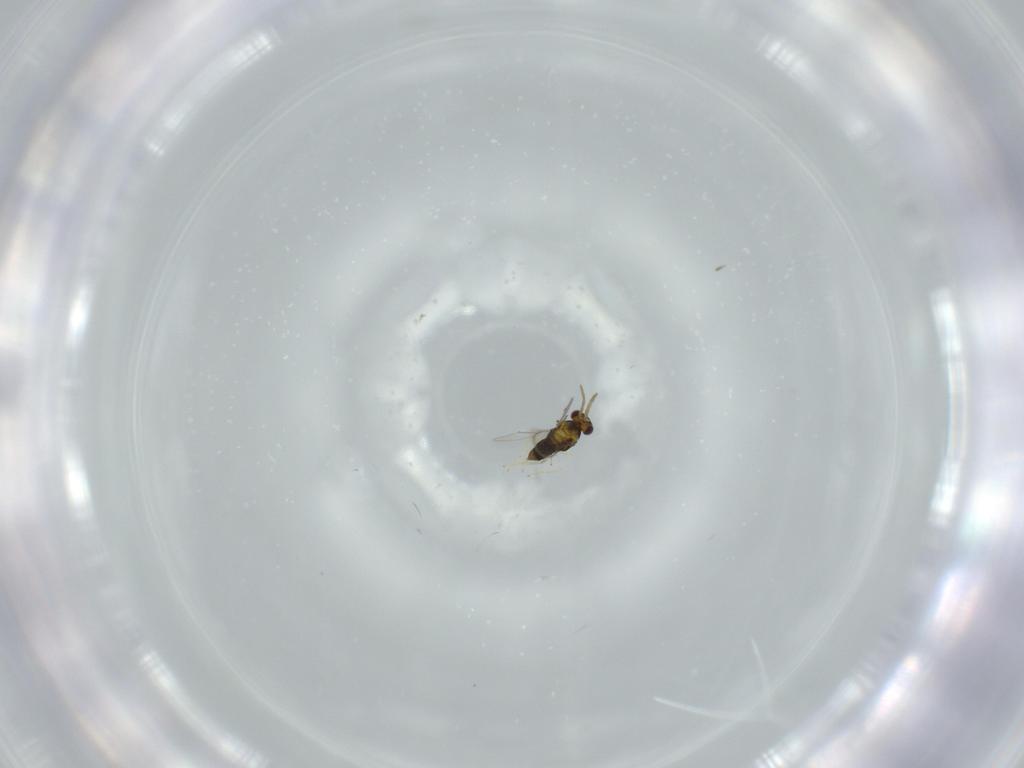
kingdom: Animalia
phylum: Arthropoda
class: Insecta
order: Hymenoptera
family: Aphelinidae
